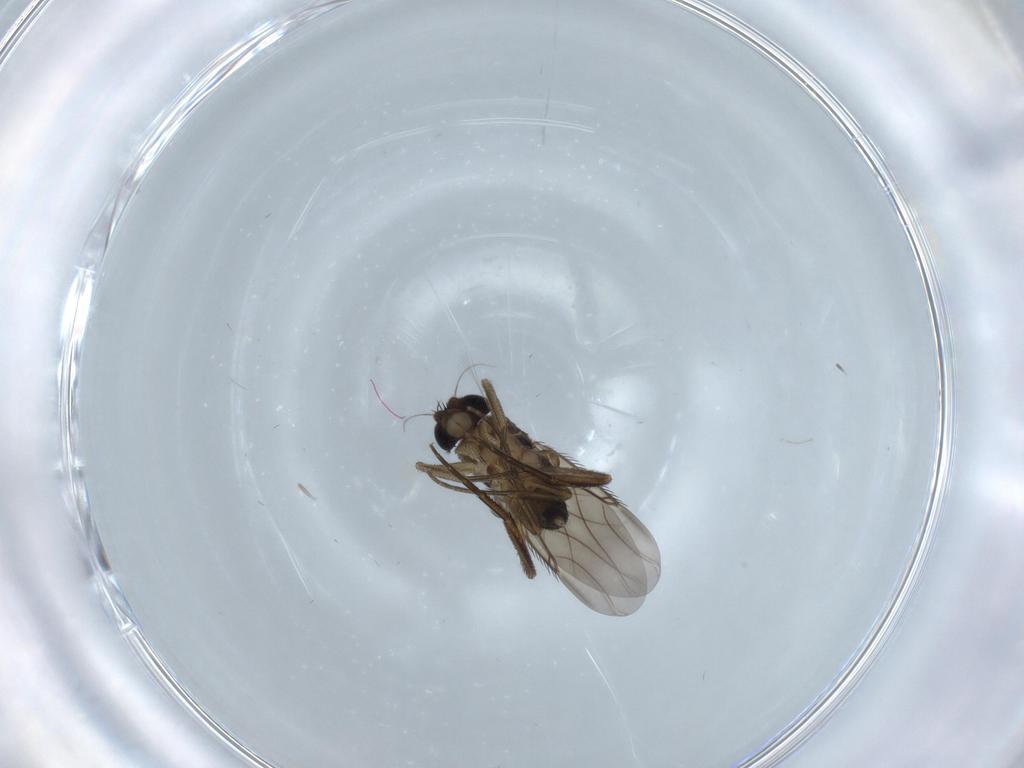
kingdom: Animalia
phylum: Arthropoda
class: Insecta
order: Diptera
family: Phoridae
